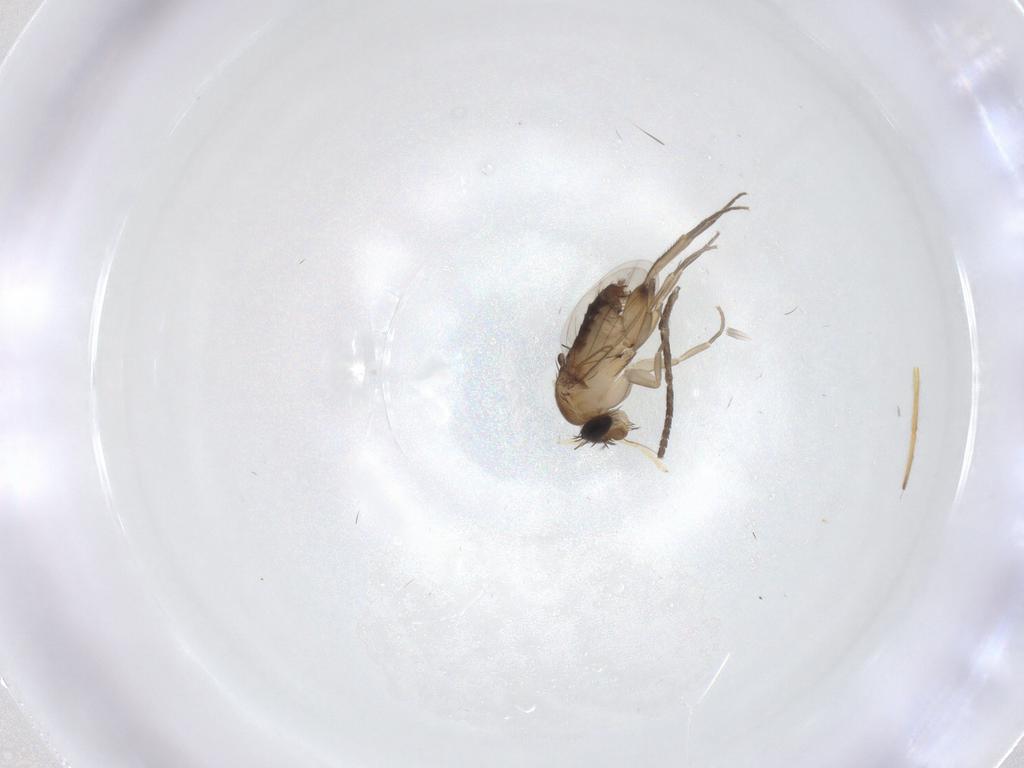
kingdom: Animalia
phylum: Arthropoda
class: Insecta
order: Diptera
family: Psychodidae
